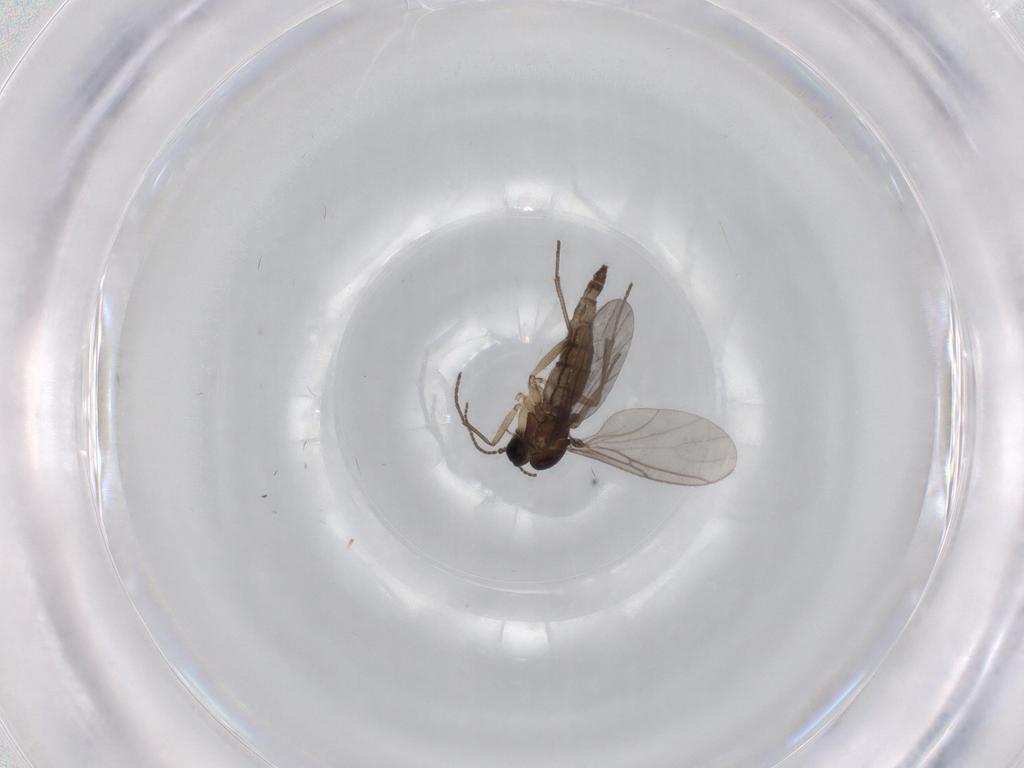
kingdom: Animalia
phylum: Arthropoda
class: Insecta
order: Diptera
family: Sciaridae
